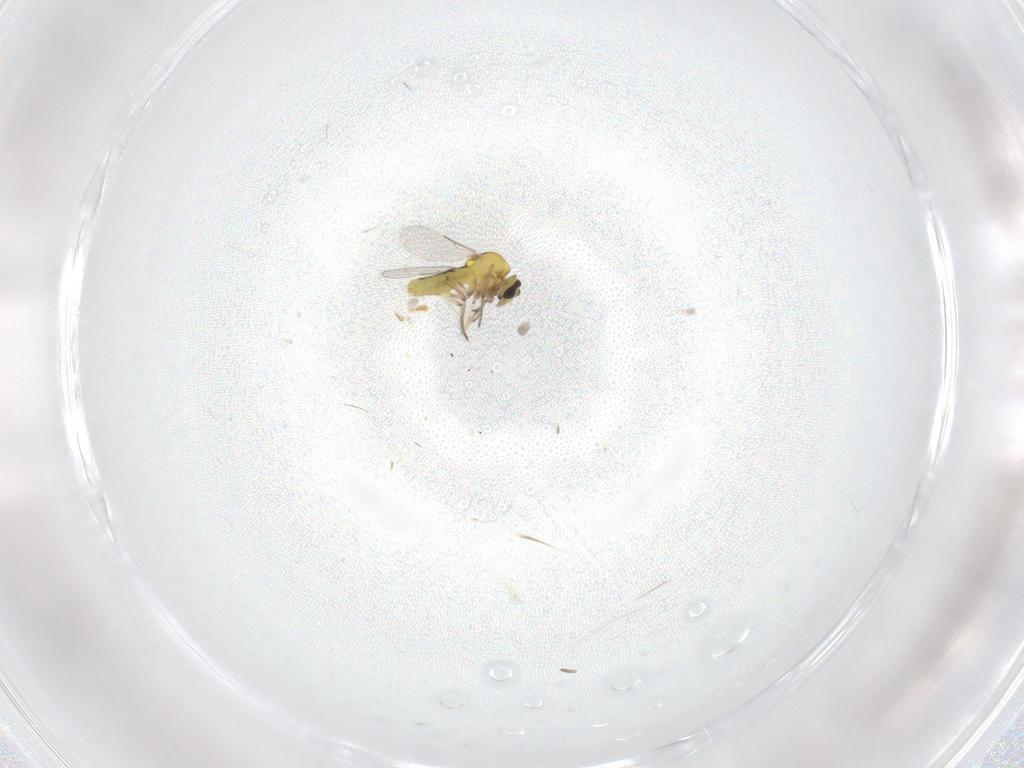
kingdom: Animalia
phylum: Arthropoda
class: Insecta
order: Diptera
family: Ceratopogonidae
